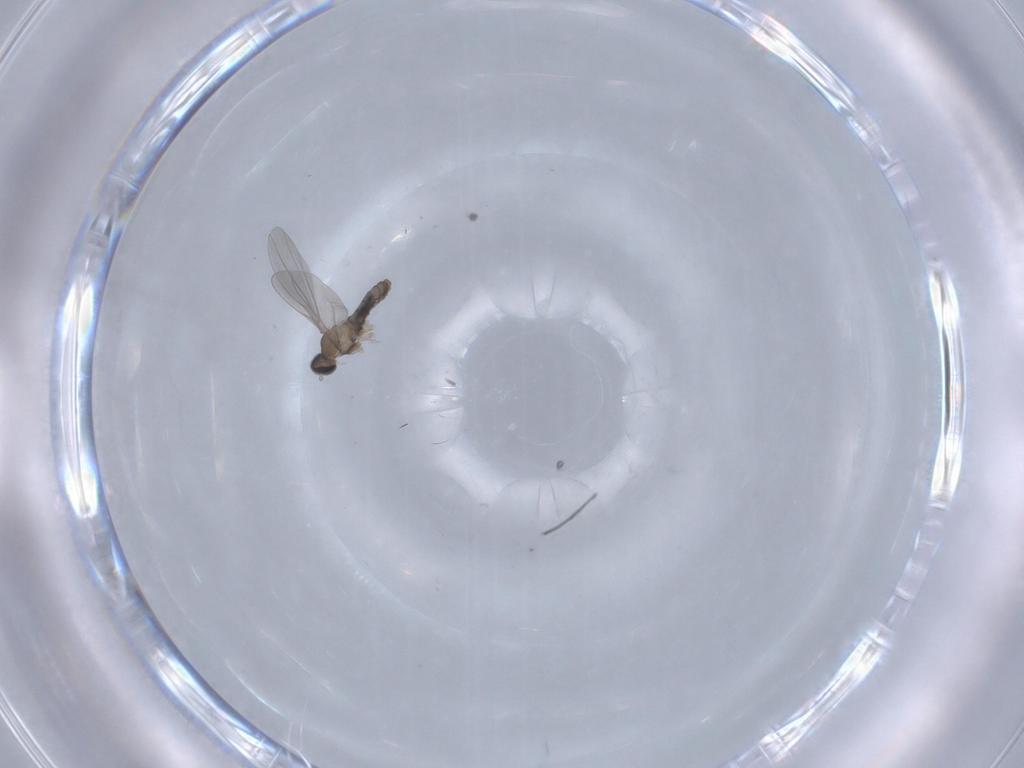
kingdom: Animalia
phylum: Arthropoda
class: Insecta
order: Diptera
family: Cecidomyiidae
